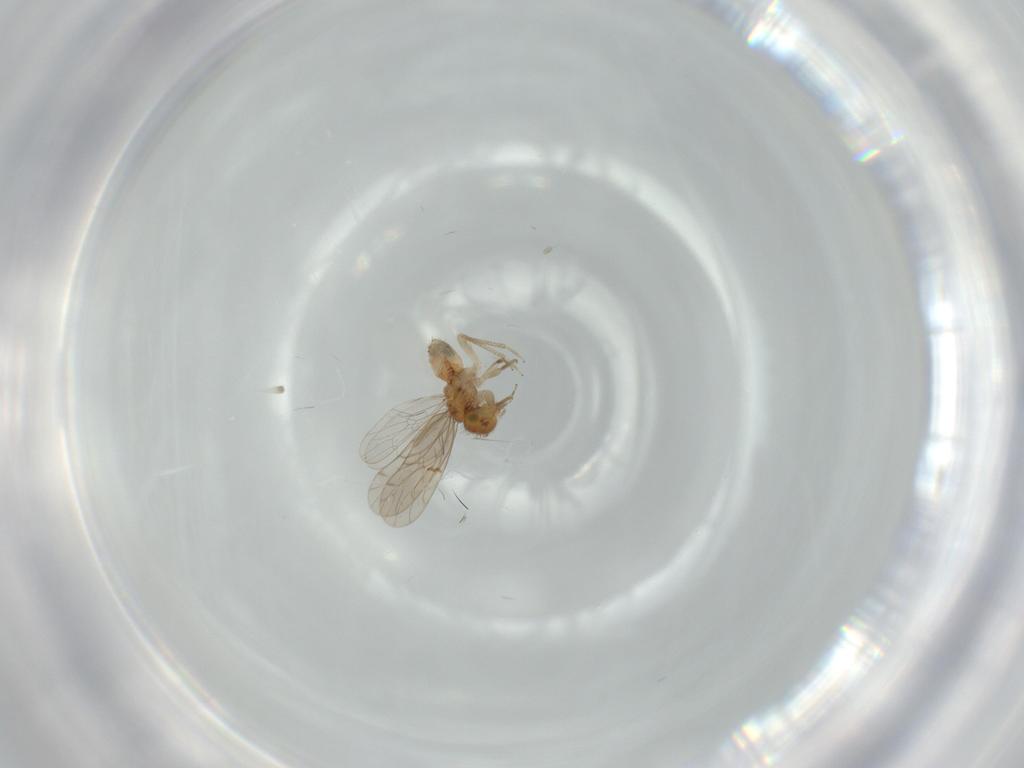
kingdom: Animalia
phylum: Arthropoda
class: Insecta
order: Psocodea
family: Ectopsocidae
